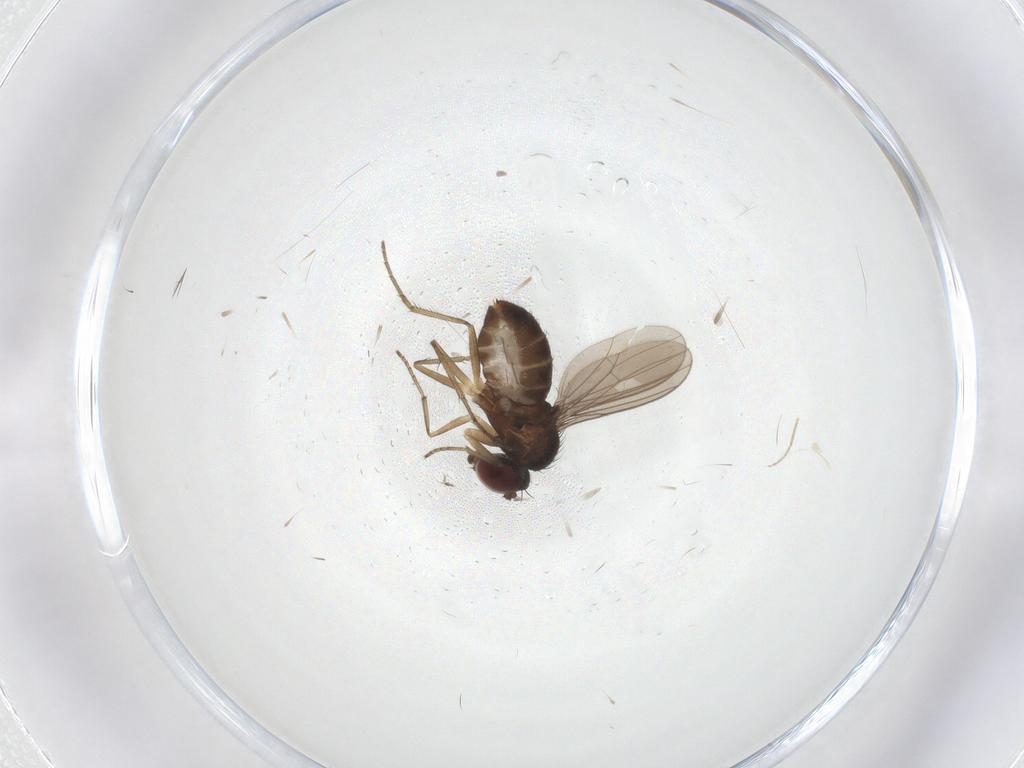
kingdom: Animalia
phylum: Arthropoda
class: Insecta
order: Diptera
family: Dolichopodidae
